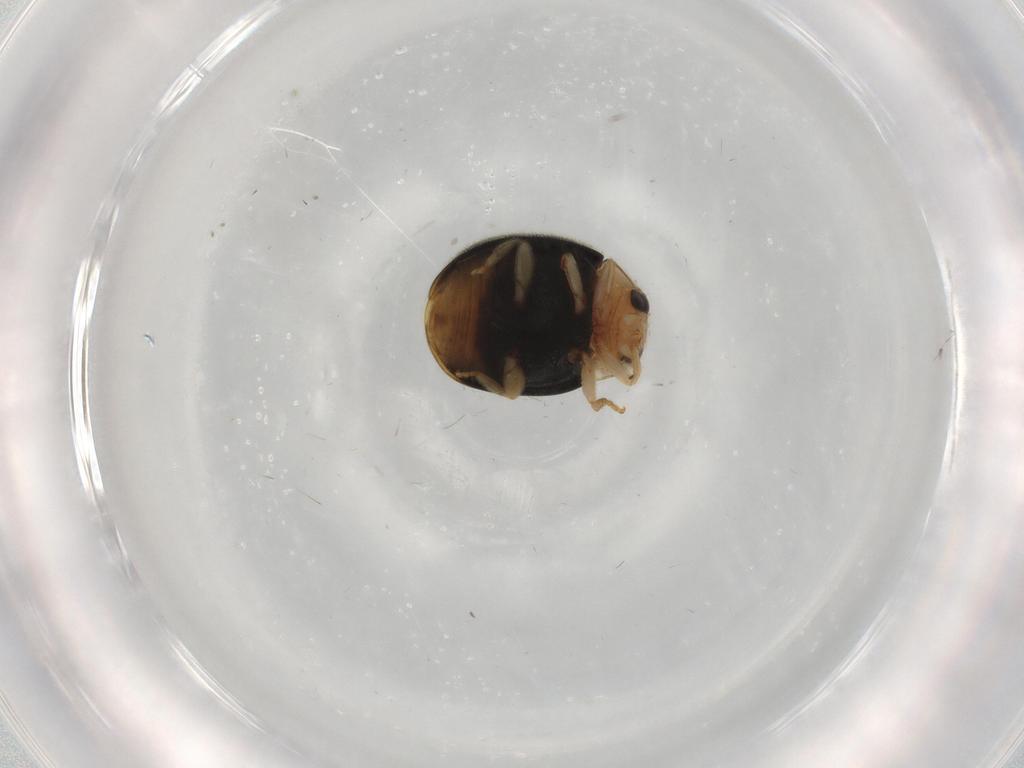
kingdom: Animalia
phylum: Arthropoda
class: Insecta
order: Coleoptera
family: Coccinellidae
